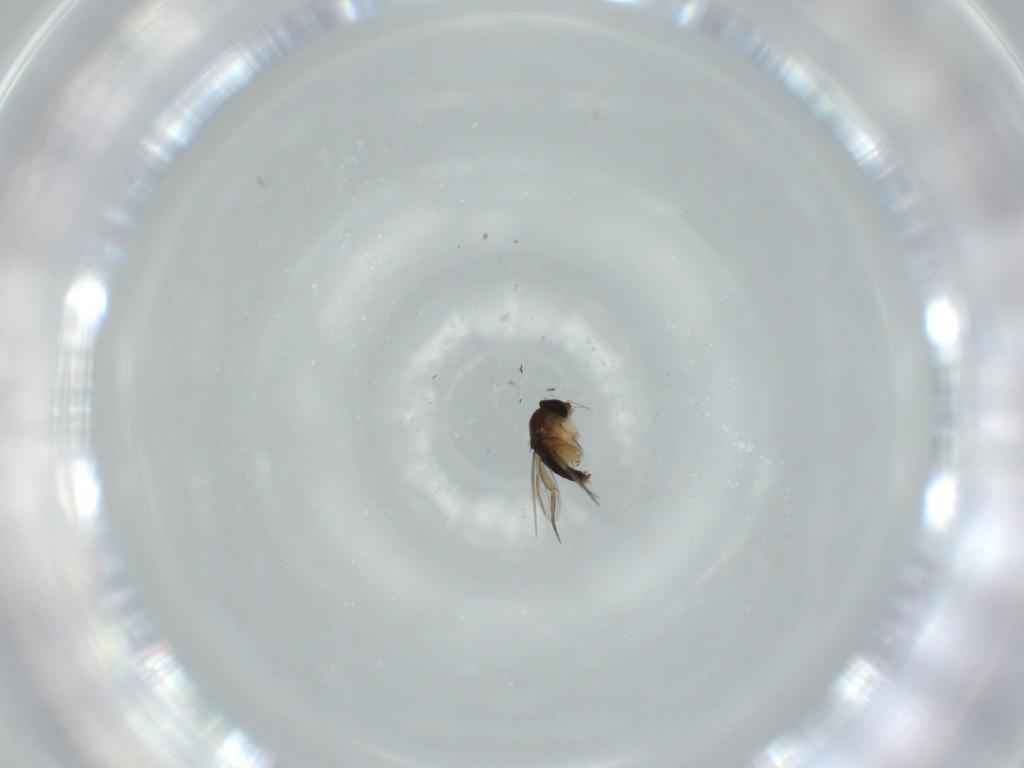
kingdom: Animalia
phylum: Arthropoda
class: Insecta
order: Diptera
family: Phoridae
